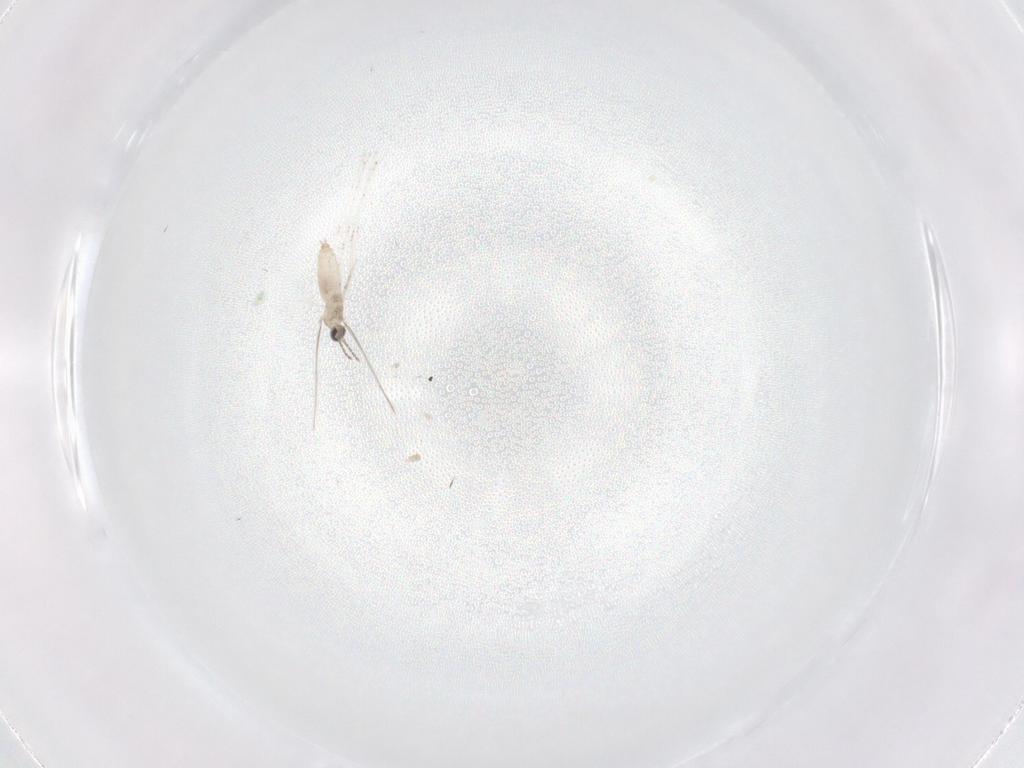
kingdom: Animalia
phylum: Arthropoda
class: Insecta
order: Diptera
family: Cecidomyiidae
